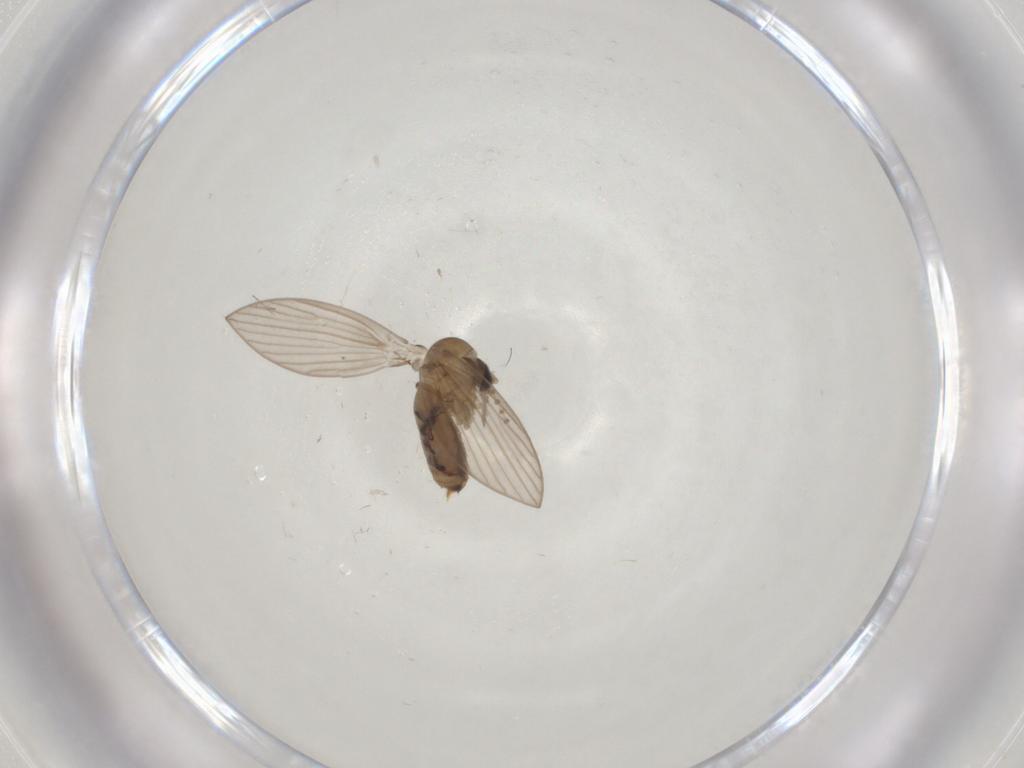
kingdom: Animalia
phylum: Arthropoda
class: Insecta
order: Diptera
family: Psychodidae
